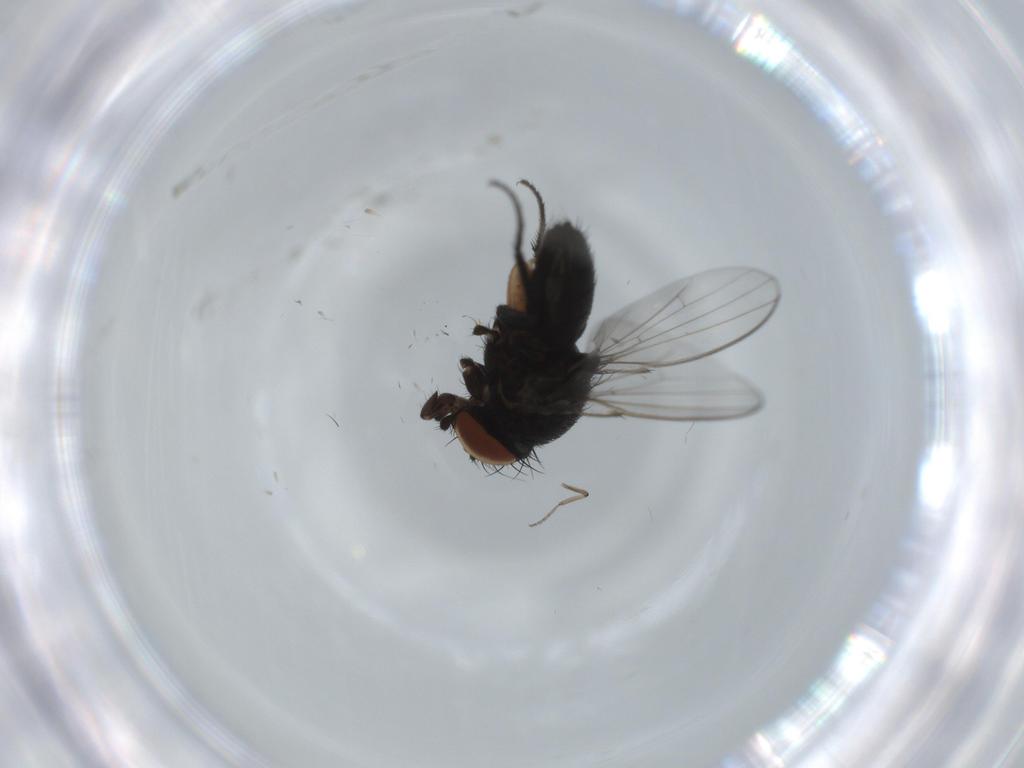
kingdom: Animalia
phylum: Arthropoda
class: Insecta
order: Diptera
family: Milichiidae
